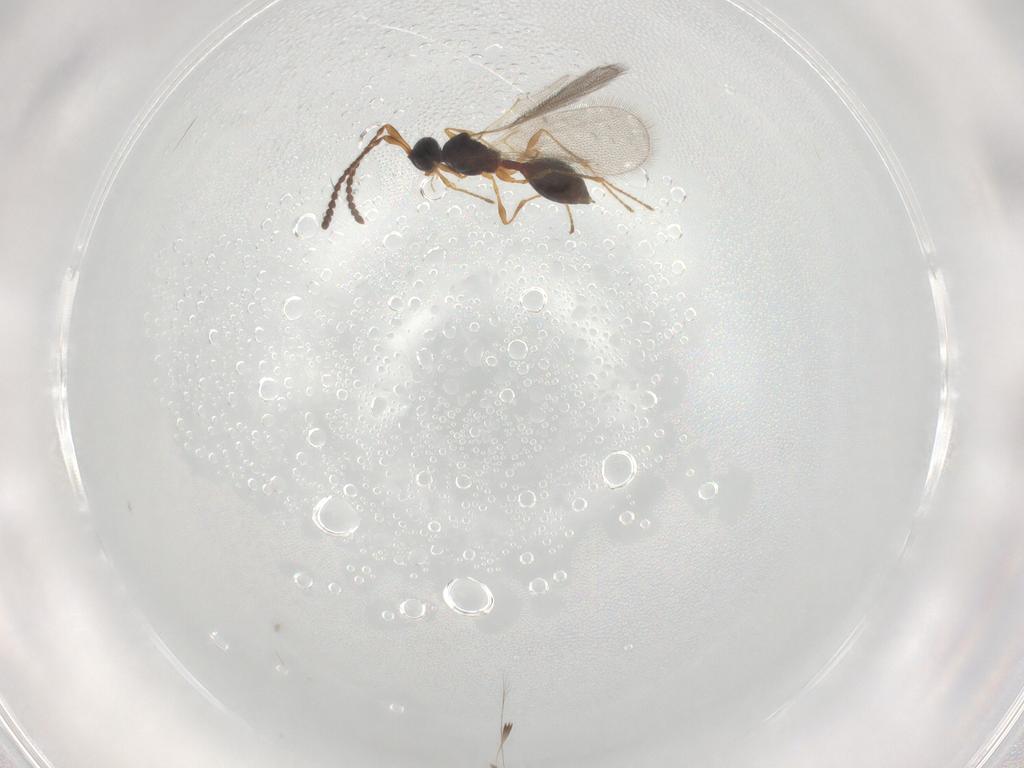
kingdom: Animalia
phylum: Arthropoda
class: Insecta
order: Hymenoptera
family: Diapriidae
